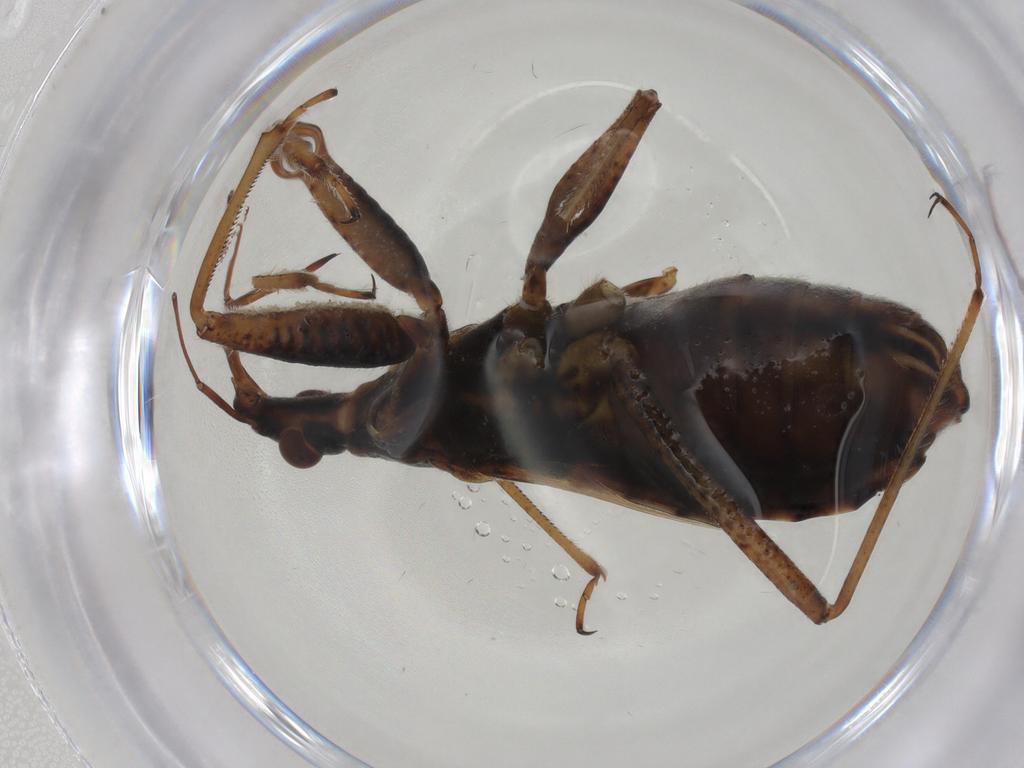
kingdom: Animalia
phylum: Arthropoda
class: Insecta
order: Hemiptera
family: Nabidae
